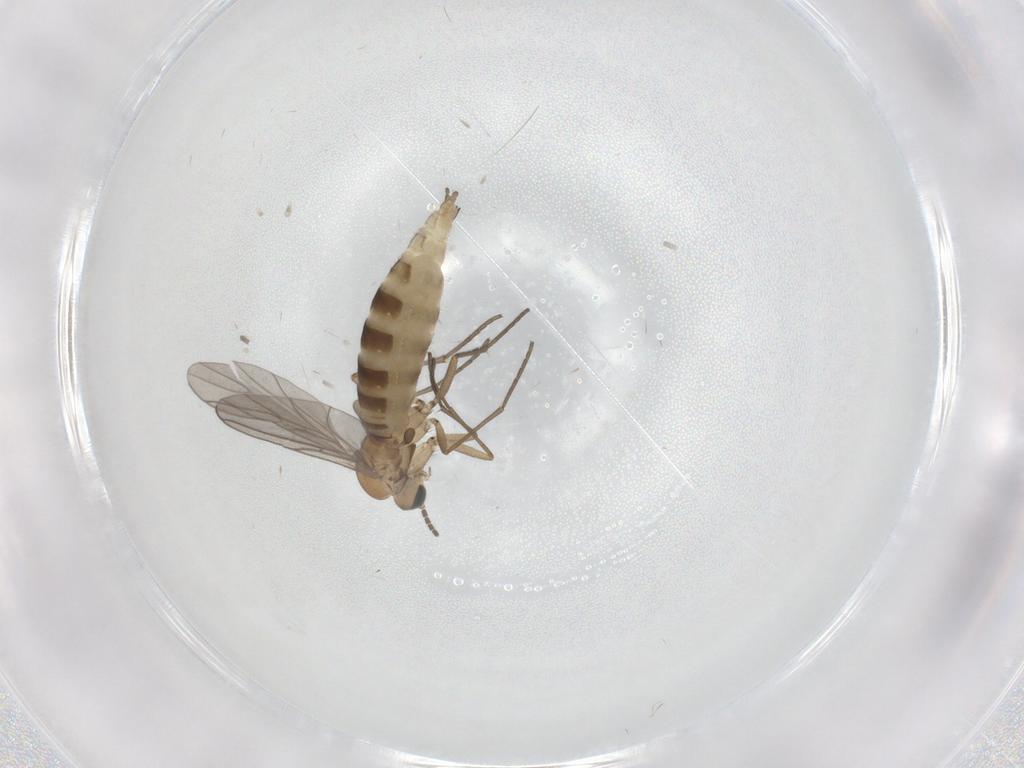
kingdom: Animalia
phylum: Arthropoda
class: Insecta
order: Diptera
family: Sciaridae
